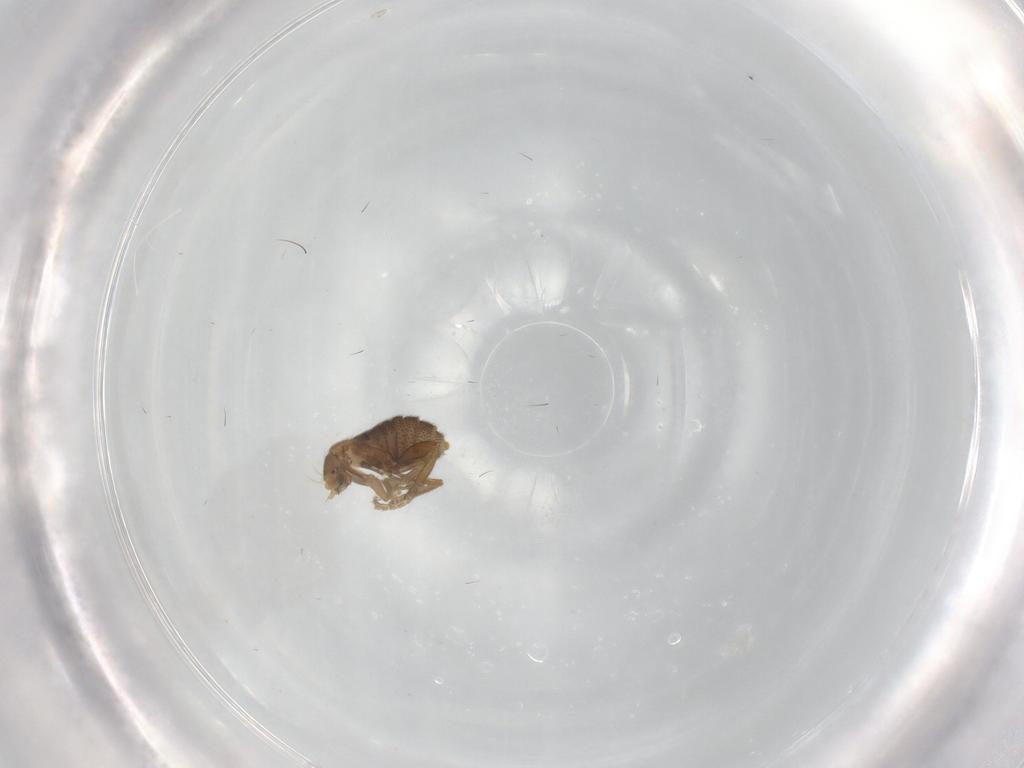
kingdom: Animalia
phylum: Arthropoda
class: Insecta
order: Diptera
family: Phoridae
